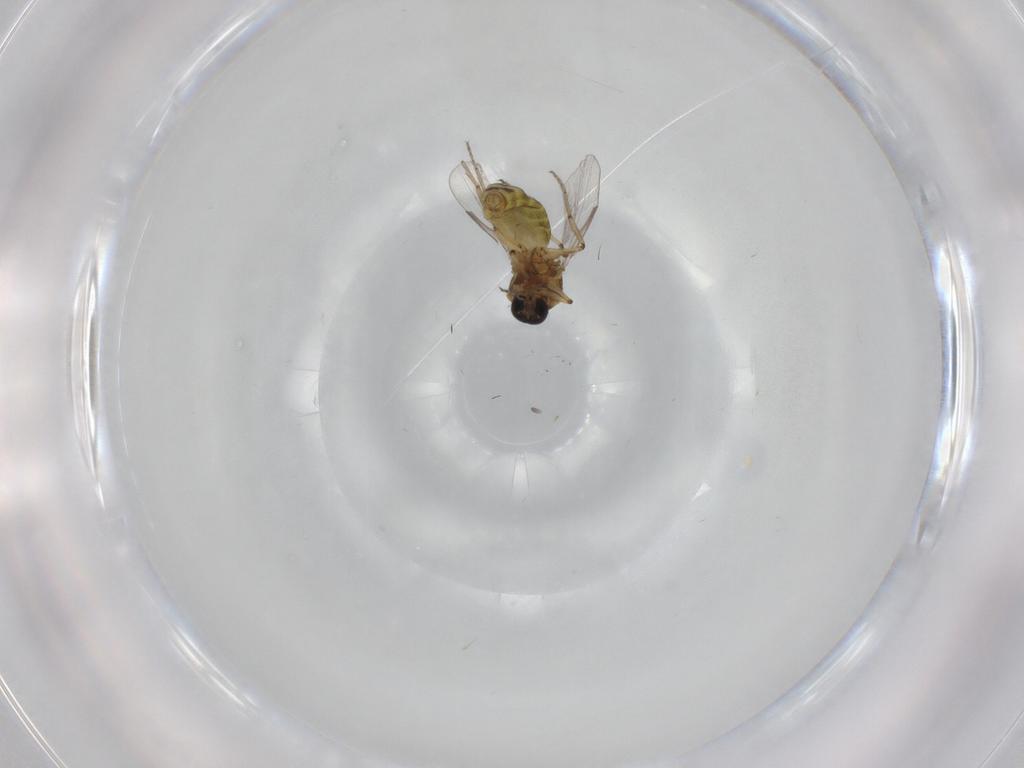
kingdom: Animalia
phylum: Arthropoda
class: Insecta
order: Diptera
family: Ceratopogonidae
